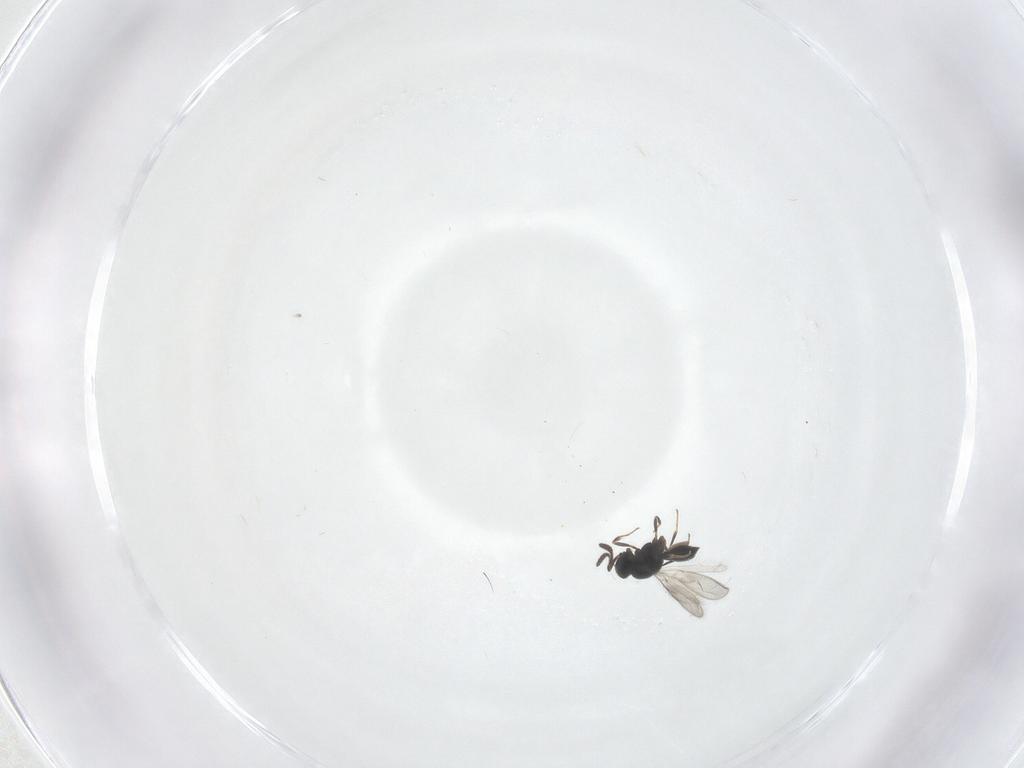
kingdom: Animalia
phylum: Arthropoda
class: Insecta
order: Hymenoptera
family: Scelionidae
